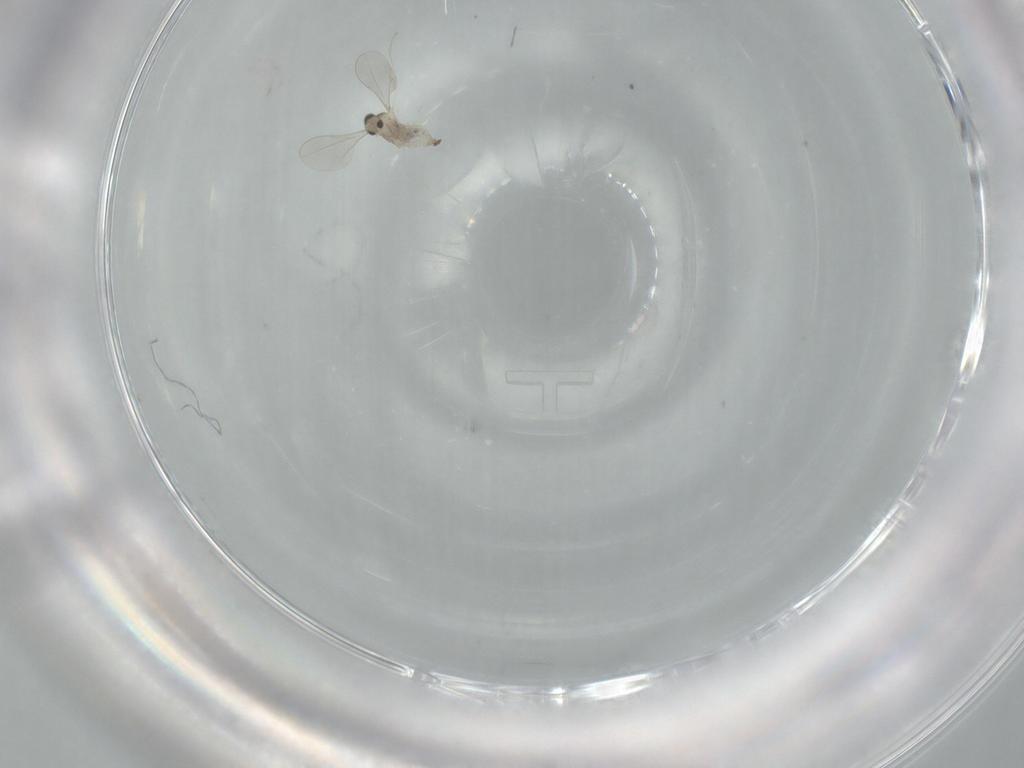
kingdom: Animalia
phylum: Arthropoda
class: Insecta
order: Diptera
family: Cecidomyiidae
